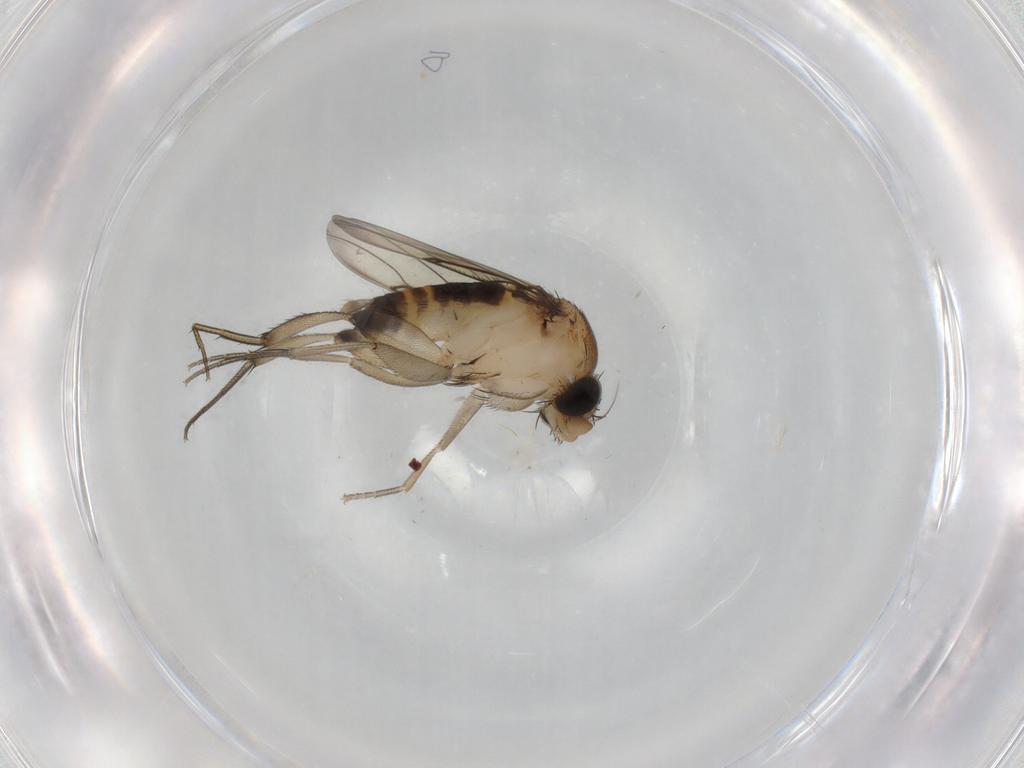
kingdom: Animalia
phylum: Arthropoda
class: Insecta
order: Diptera
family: Phoridae
